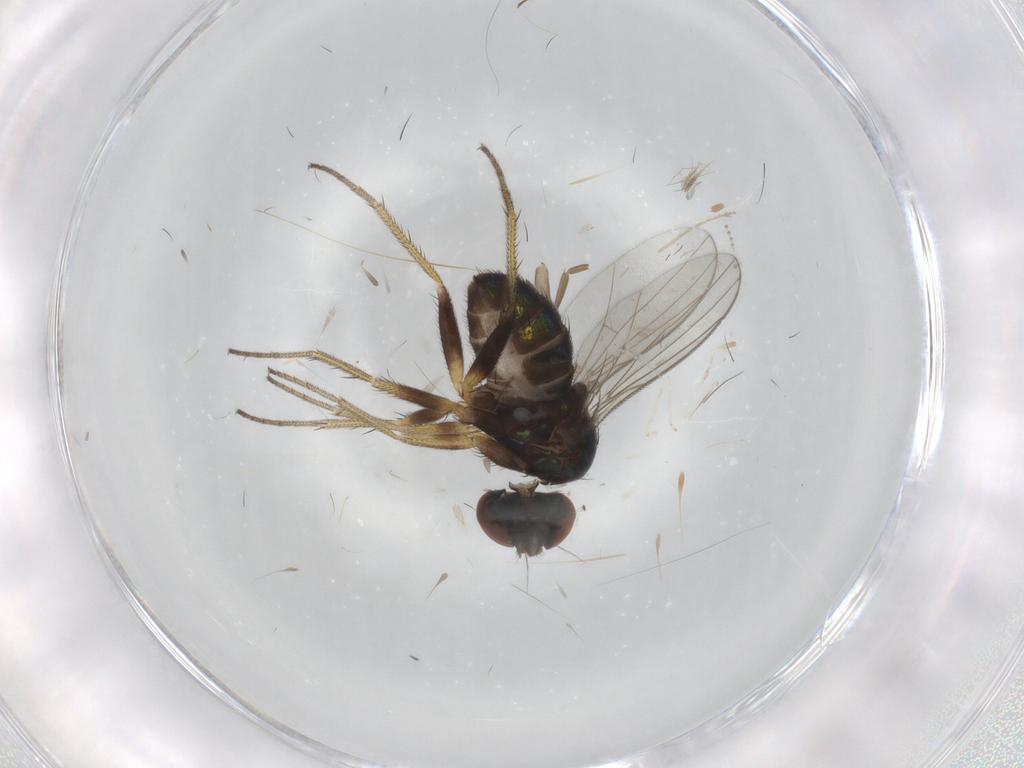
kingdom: Animalia
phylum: Arthropoda
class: Insecta
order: Diptera
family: Phoridae
